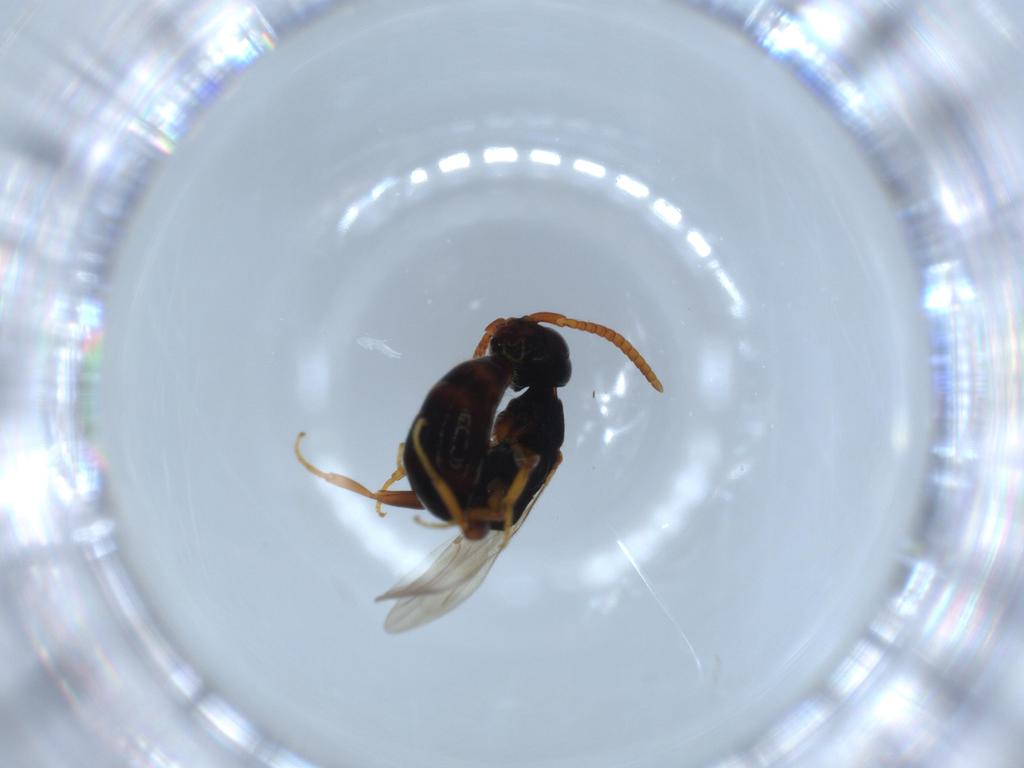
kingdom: Animalia
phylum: Arthropoda
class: Insecta
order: Hymenoptera
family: Bethylidae
